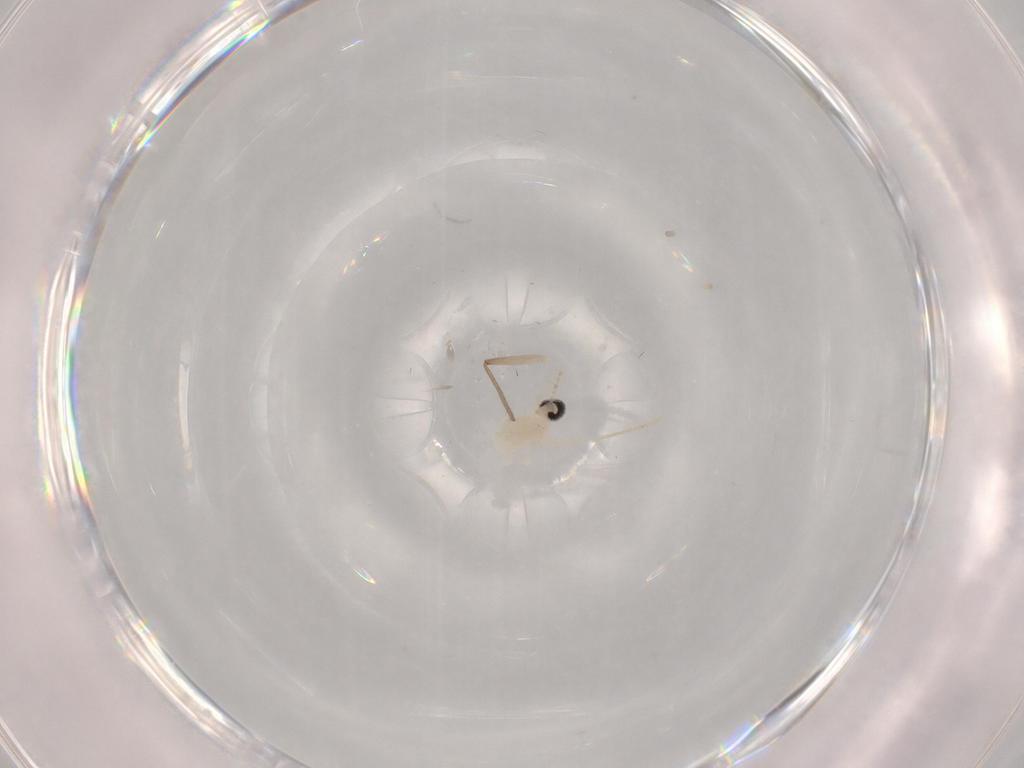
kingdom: Animalia
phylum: Arthropoda
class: Insecta
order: Diptera
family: Cecidomyiidae
